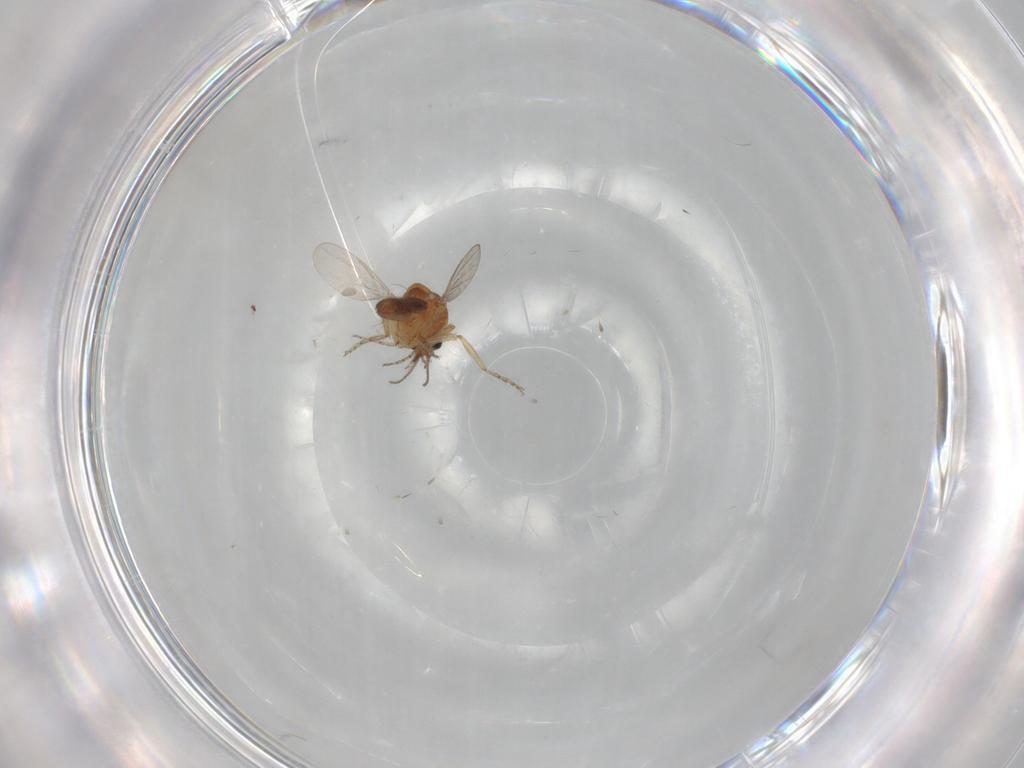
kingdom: Animalia
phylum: Arthropoda
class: Insecta
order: Diptera
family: Ceratopogonidae
